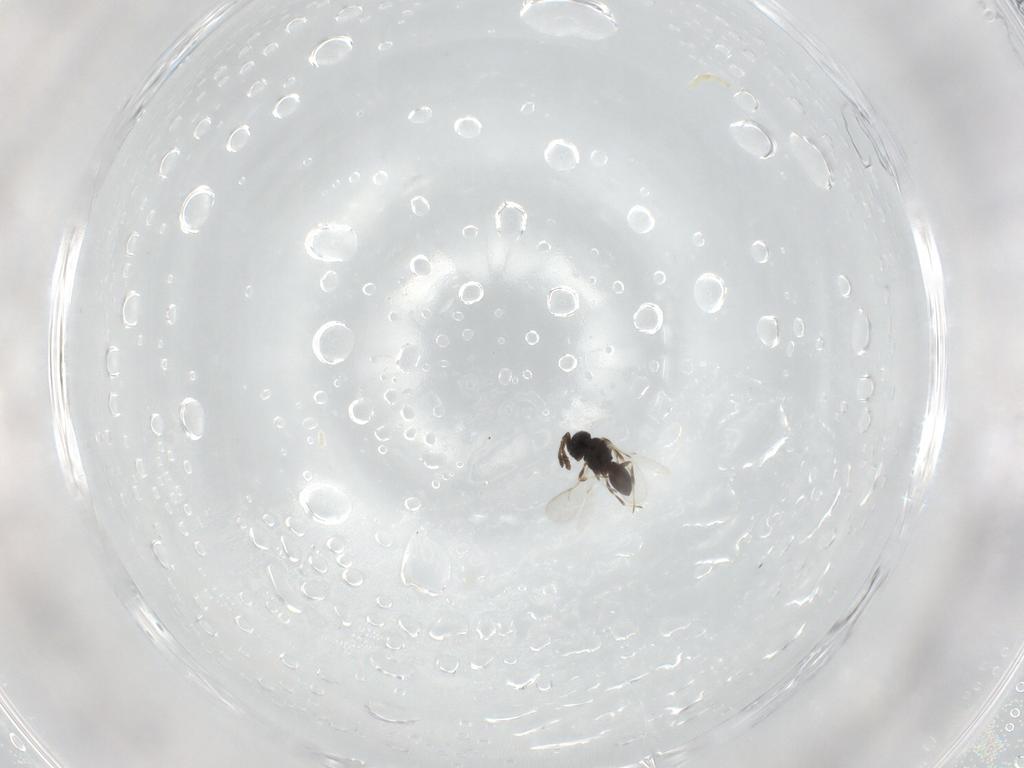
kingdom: Animalia
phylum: Arthropoda
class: Insecta
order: Hymenoptera
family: Scelionidae
